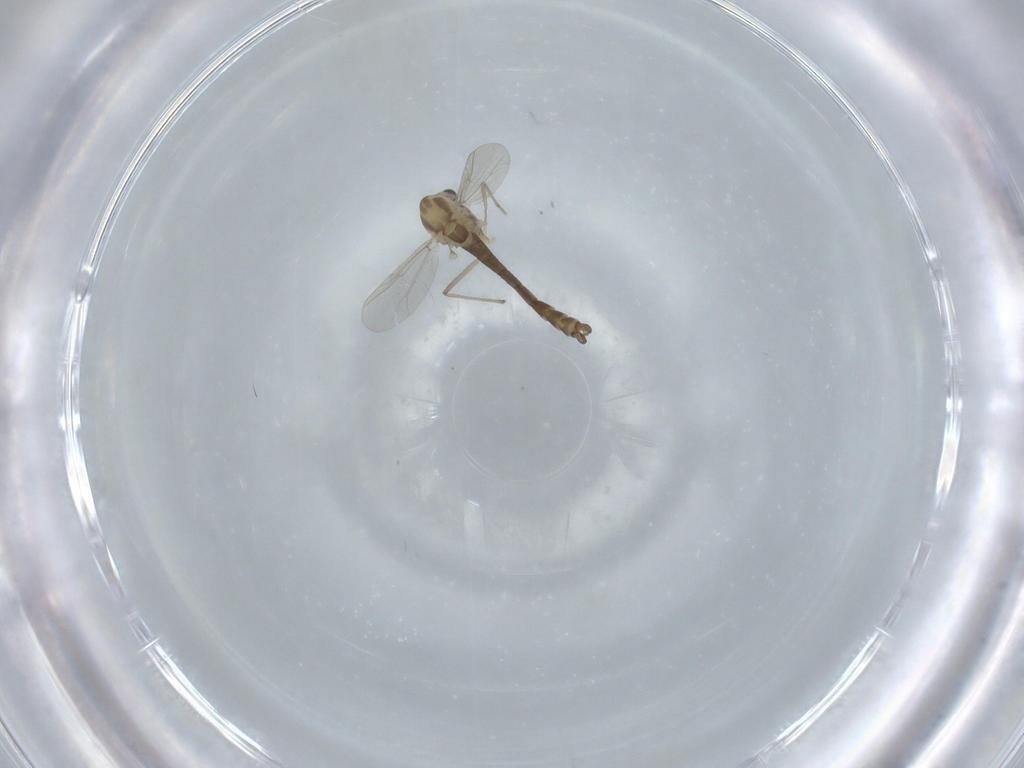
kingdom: Animalia
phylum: Arthropoda
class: Insecta
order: Diptera
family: Chironomidae
